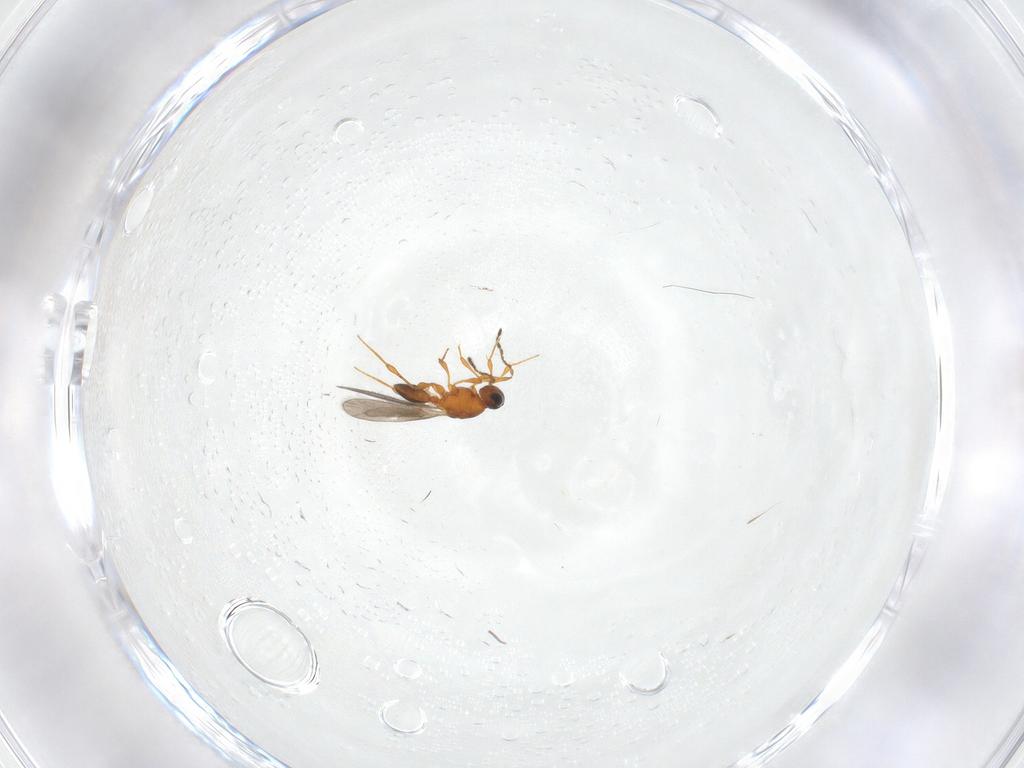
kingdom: Animalia
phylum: Arthropoda
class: Insecta
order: Hymenoptera
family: Platygastridae
